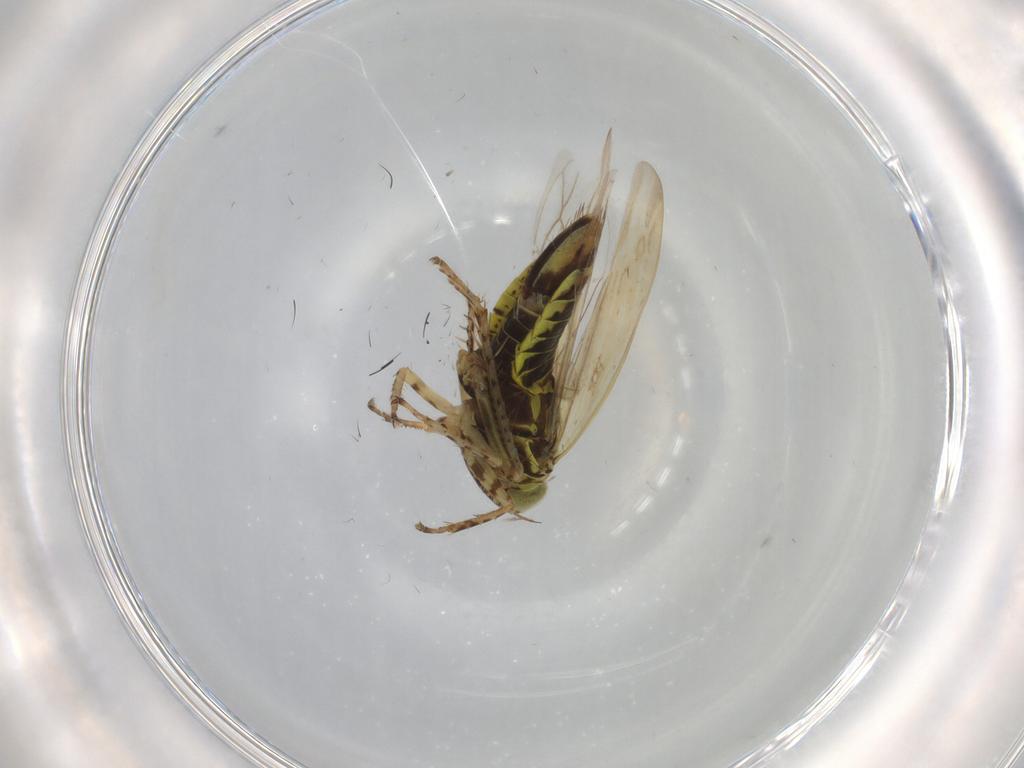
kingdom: Animalia
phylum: Arthropoda
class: Insecta
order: Hemiptera
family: Cicadellidae
